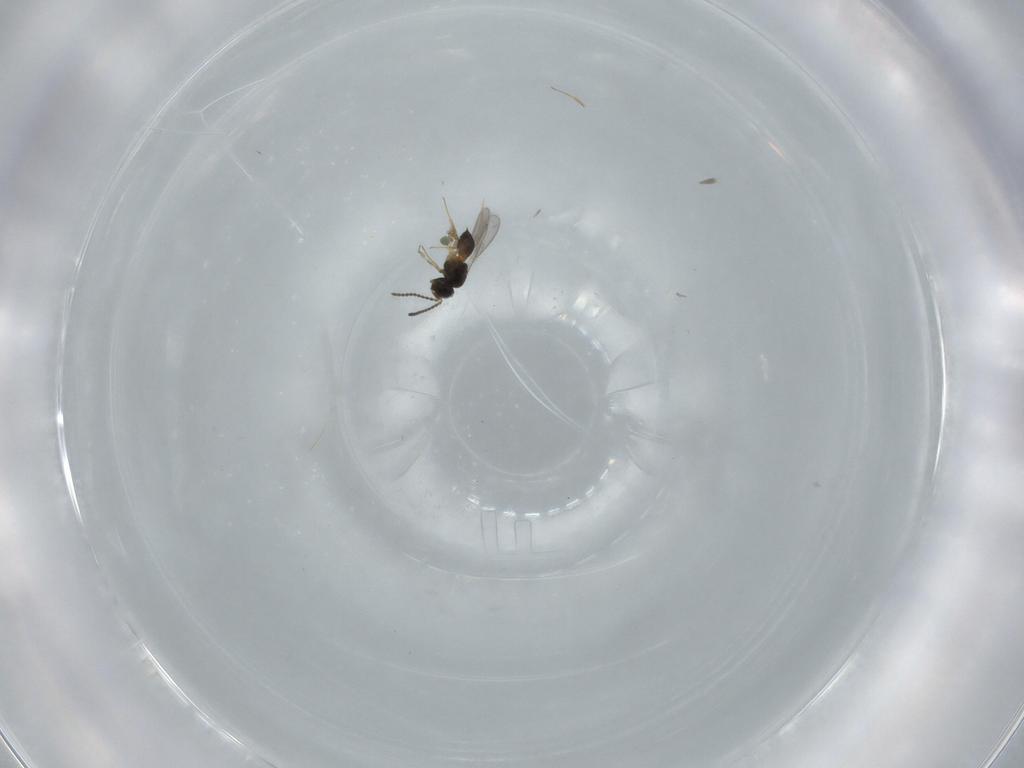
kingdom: Animalia
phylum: Arthropoda
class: Insecta
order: Hymenoptera
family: Scelionidae
